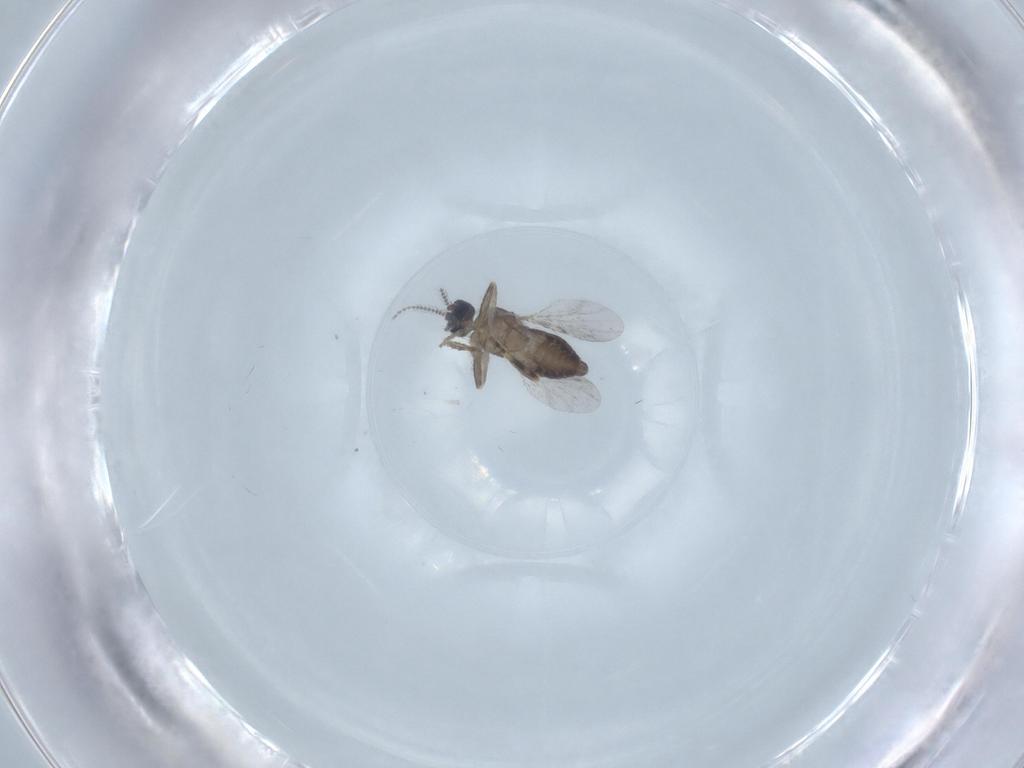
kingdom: Animalia
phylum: Arthropoda
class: Insecta
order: Diptera
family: Ceratopogonidae
